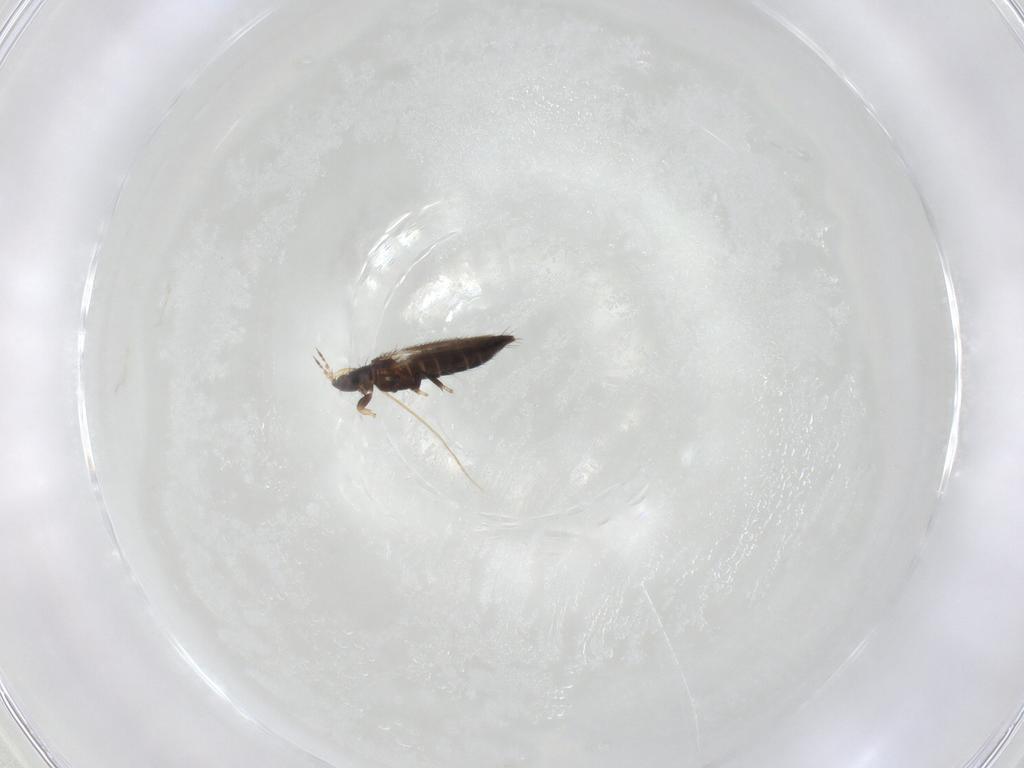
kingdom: Animalia
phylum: Arthropoda
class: Insecta
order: Thysanoptera
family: Thripidae
